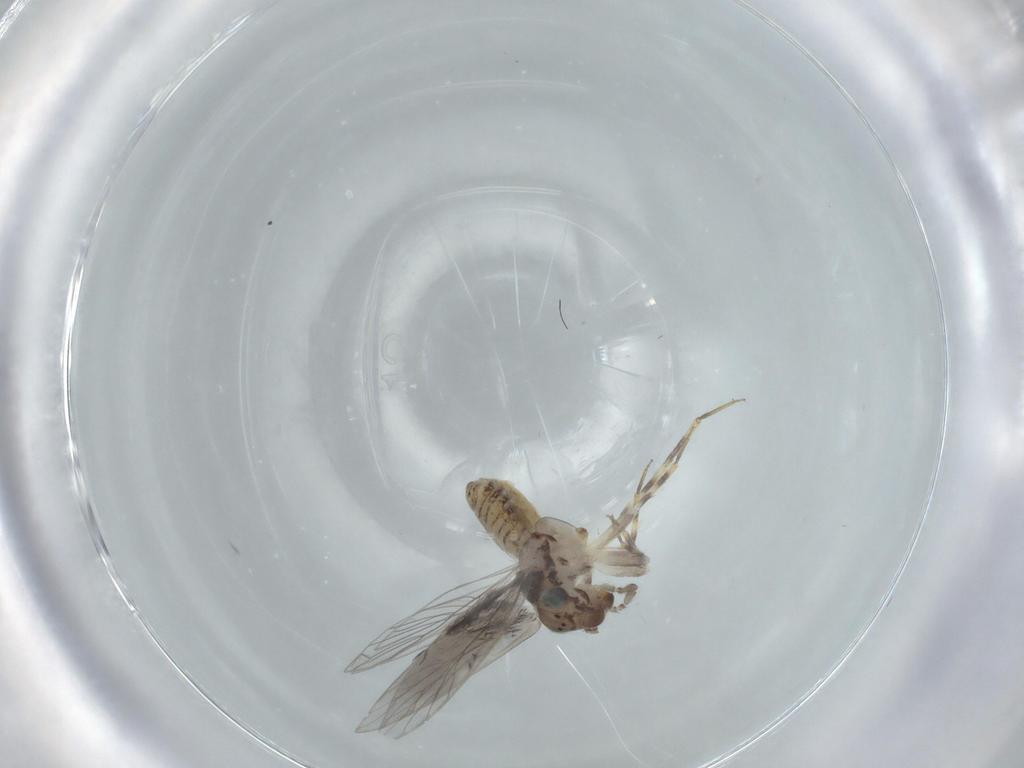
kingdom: Animalia
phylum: Arthropoda
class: Insecta
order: Psocodea
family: Lepidopsocidae
